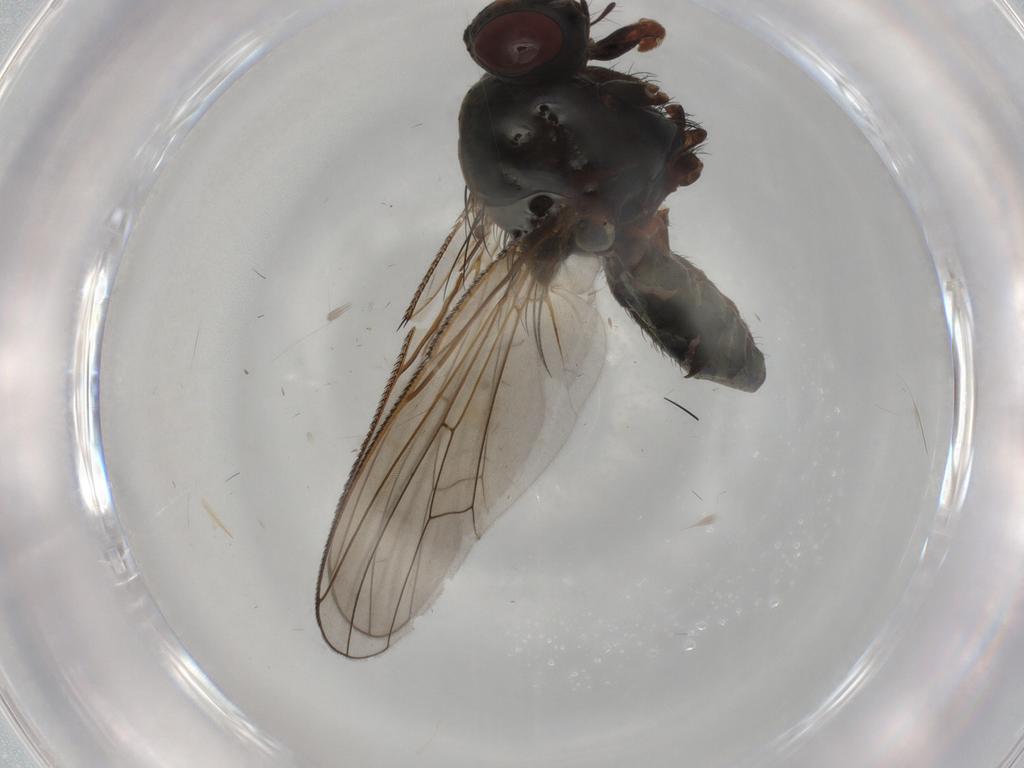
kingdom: Animalia
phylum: Arthropoda
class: Insecta
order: Diptera
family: Anthomyiidae
